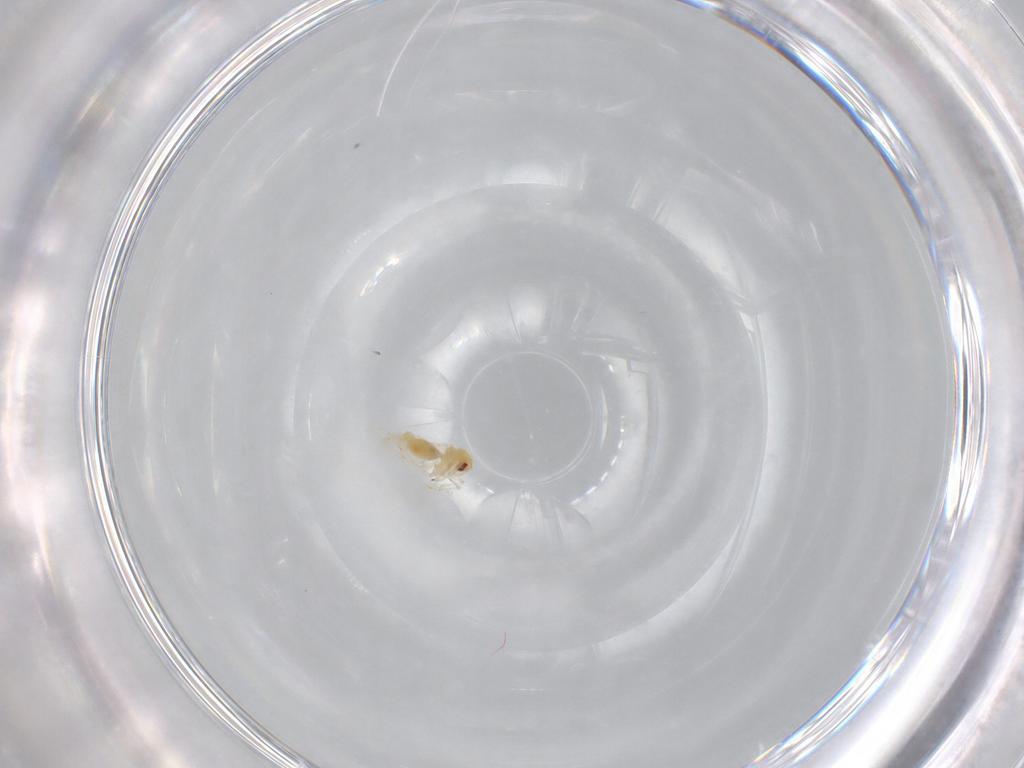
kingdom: Animalia
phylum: Arthropoda
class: Insecta
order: Hemiptera
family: Aleyrodidae
